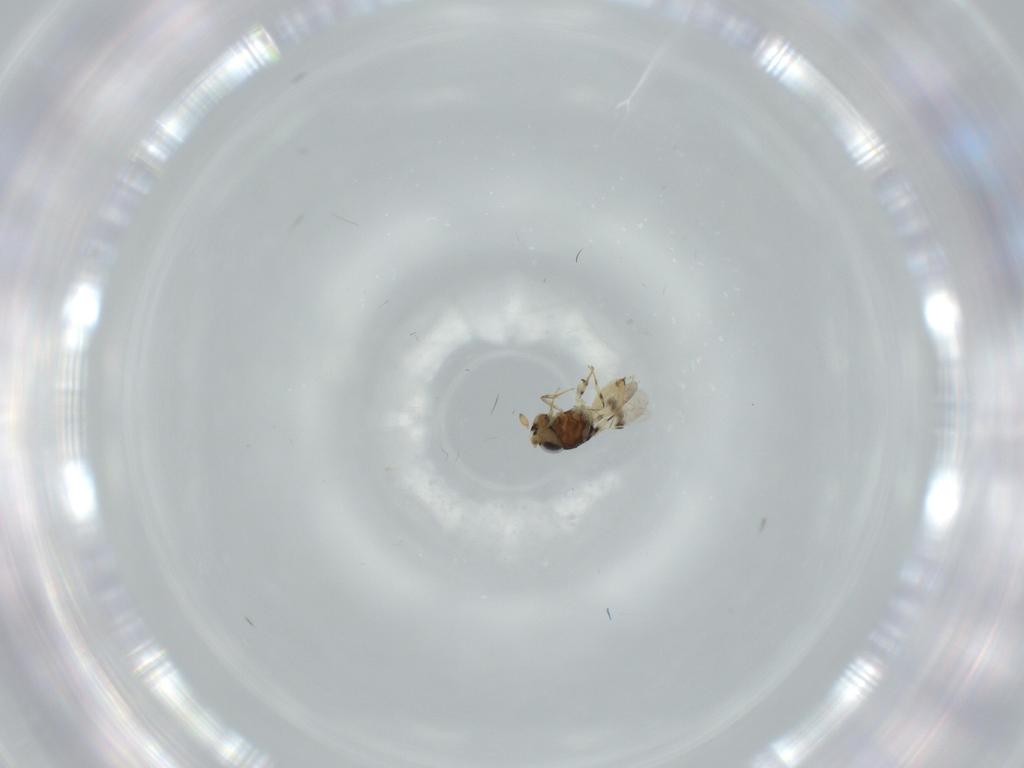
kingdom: Animalia
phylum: Arthropoda
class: Insecta
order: Hymenoptera
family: Scelionidae
